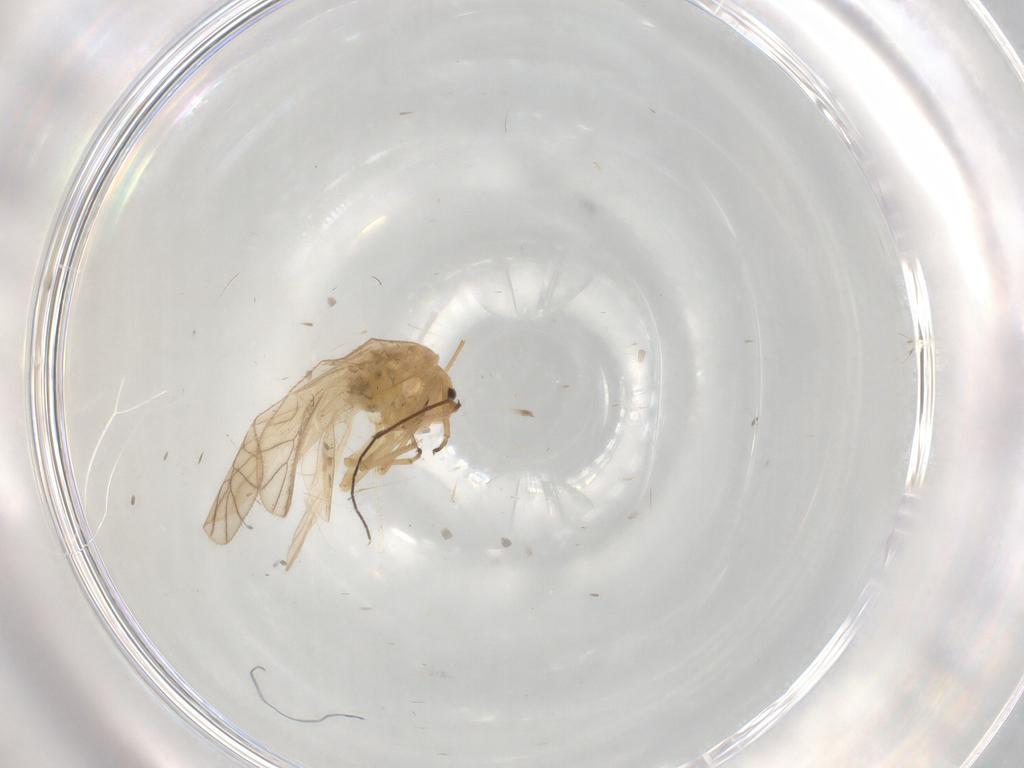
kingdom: Animalia
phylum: Arthropoda
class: Insecta
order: Psocodea
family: Caeciliusidae
